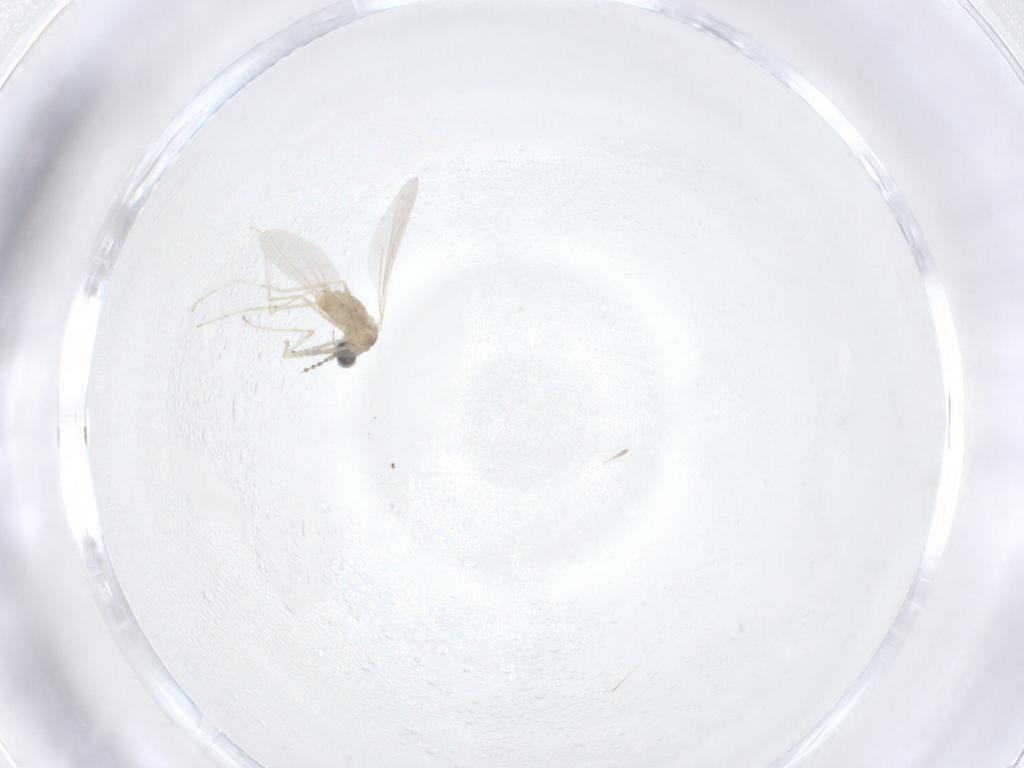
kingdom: Animalia
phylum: Arthropoda
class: Insecta
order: Diptera
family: Cecidomyiidae
